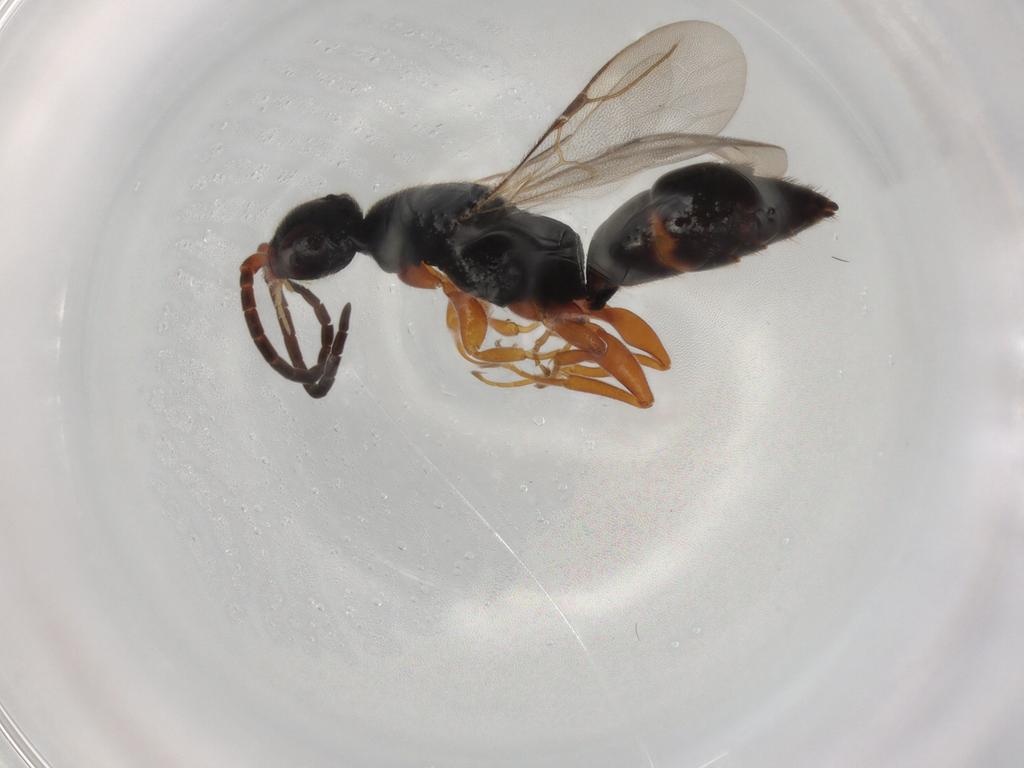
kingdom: Animalia
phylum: Arthropoda
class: Insecta
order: Hymenoptera
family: Bethylidae
